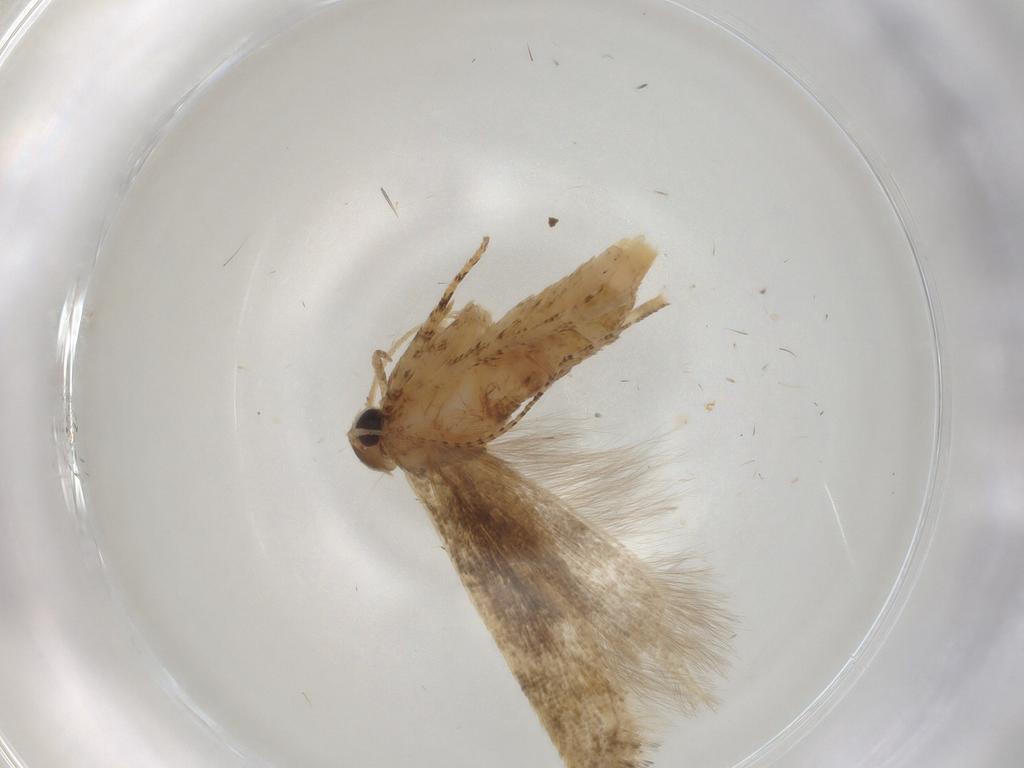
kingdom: Animalia
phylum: Arthropoda
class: Insecta
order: Lepidoptera
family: Gelechiidae
